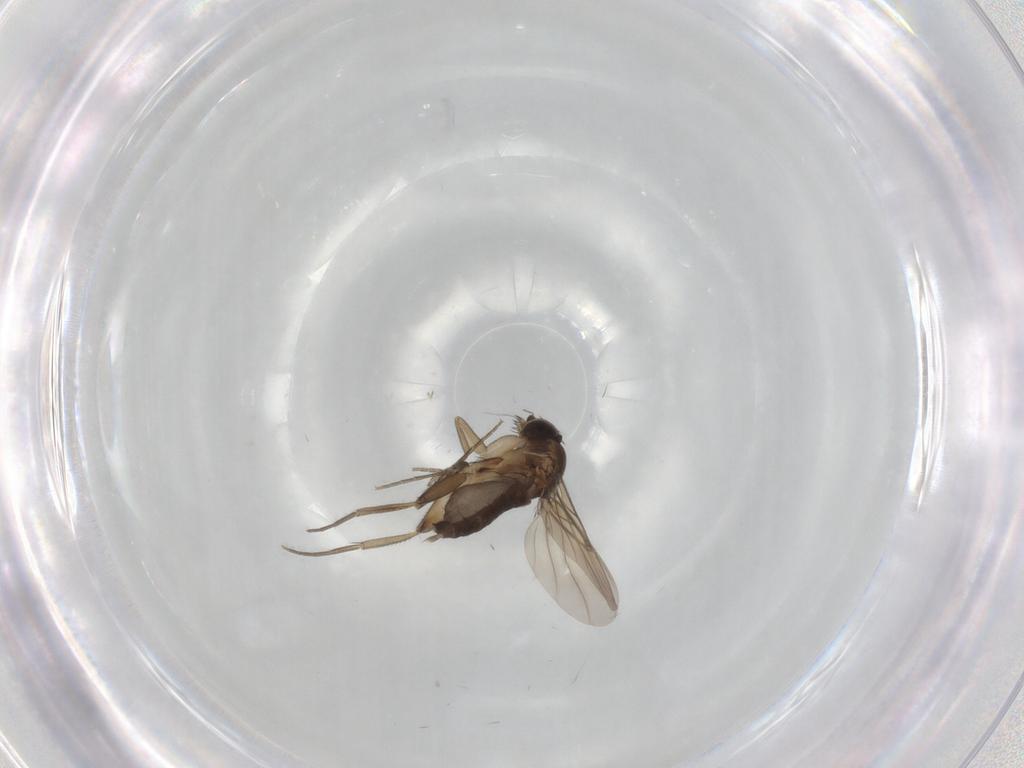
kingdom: Animalia
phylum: Arthropoda
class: Insecta
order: Diptera
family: Phoridae
